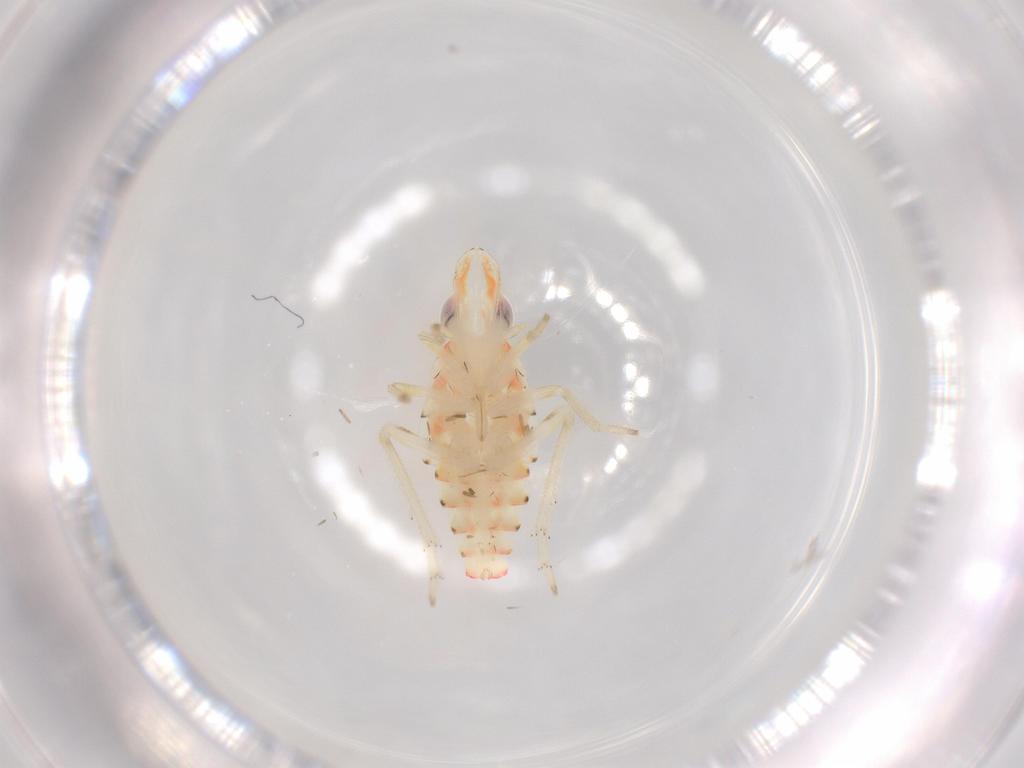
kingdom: Animalia
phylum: Arthropoda
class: Insecta
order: Hemiptera
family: Tropiduchidae
